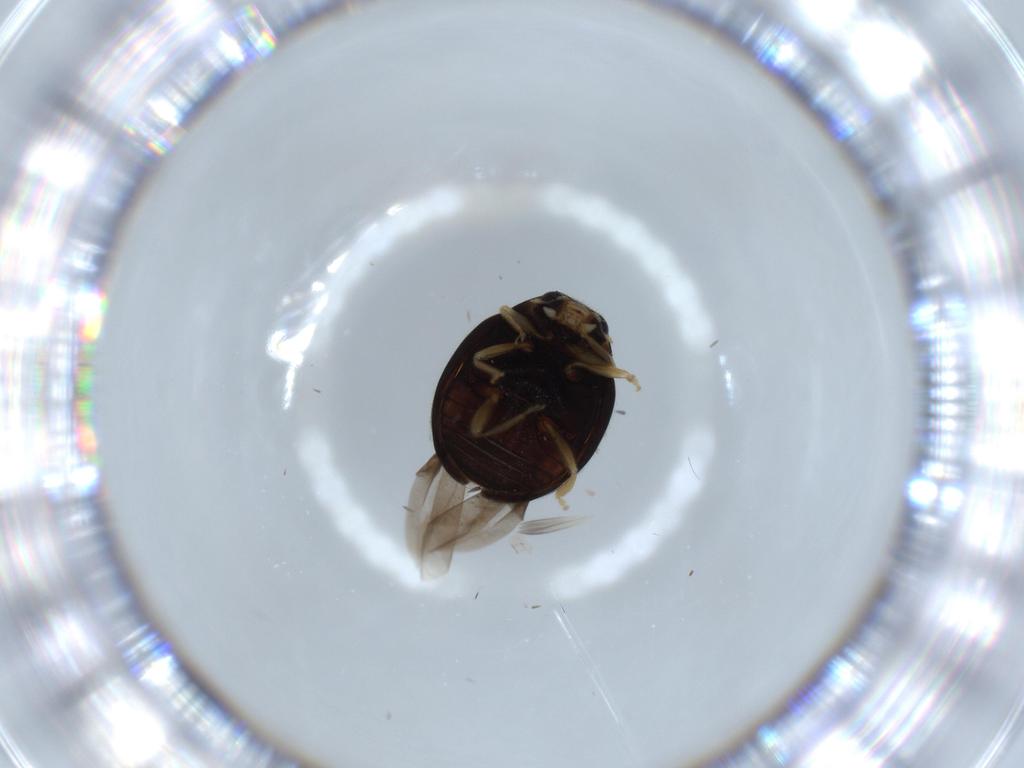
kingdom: Animalia
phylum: Arthropoda
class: Insecta
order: Coleoptera
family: Coccinellidae
